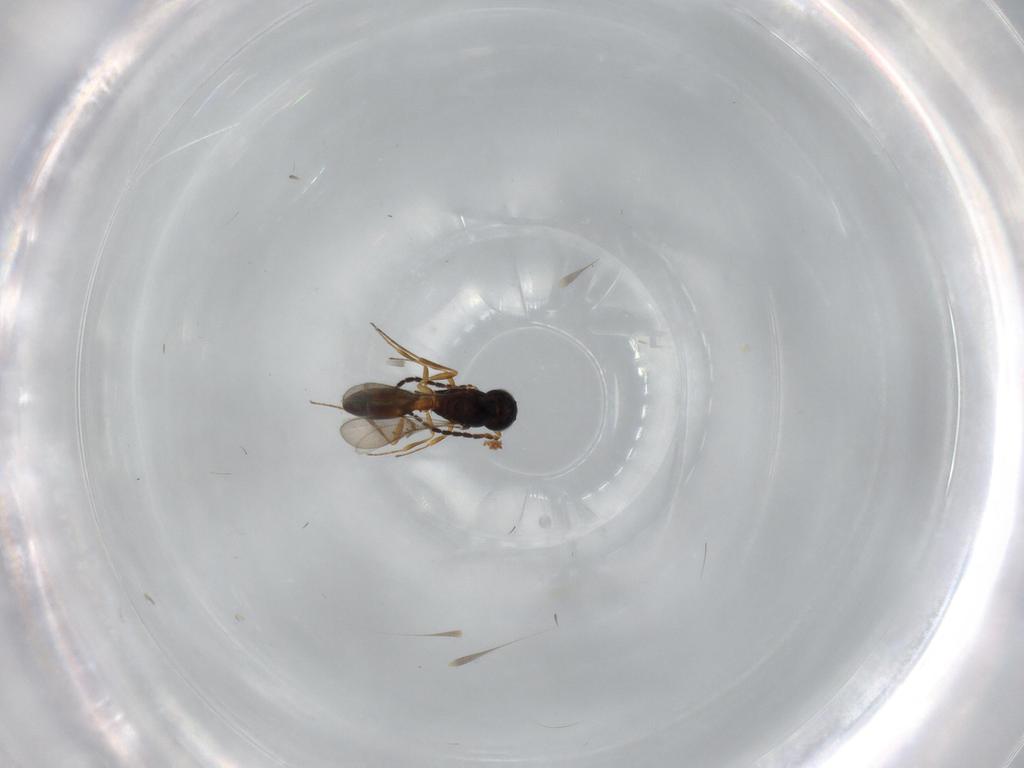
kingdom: Animalia
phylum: Arthropoda
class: Insecta
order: Hymenoptera
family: Scelionidae
